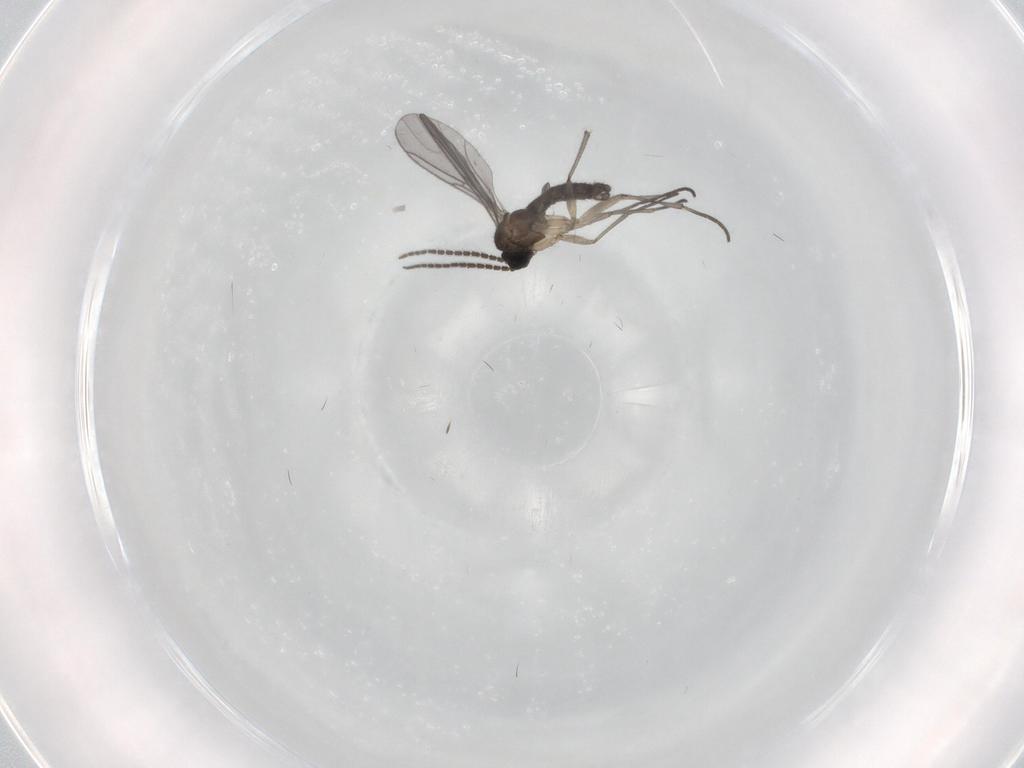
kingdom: Animalia
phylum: Arthropoda
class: Insecta
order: Diptera
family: Sciaridae
